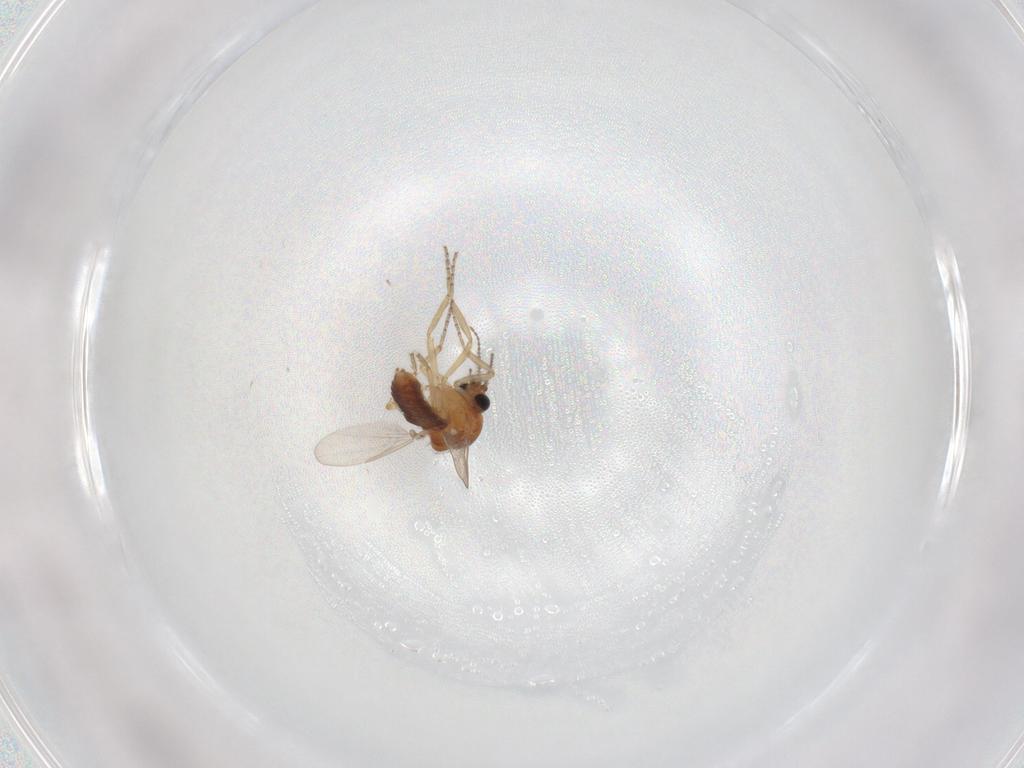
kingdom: Animalia
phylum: Arthropoda
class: Insecta
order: Diptera
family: Ceratopogonidae
